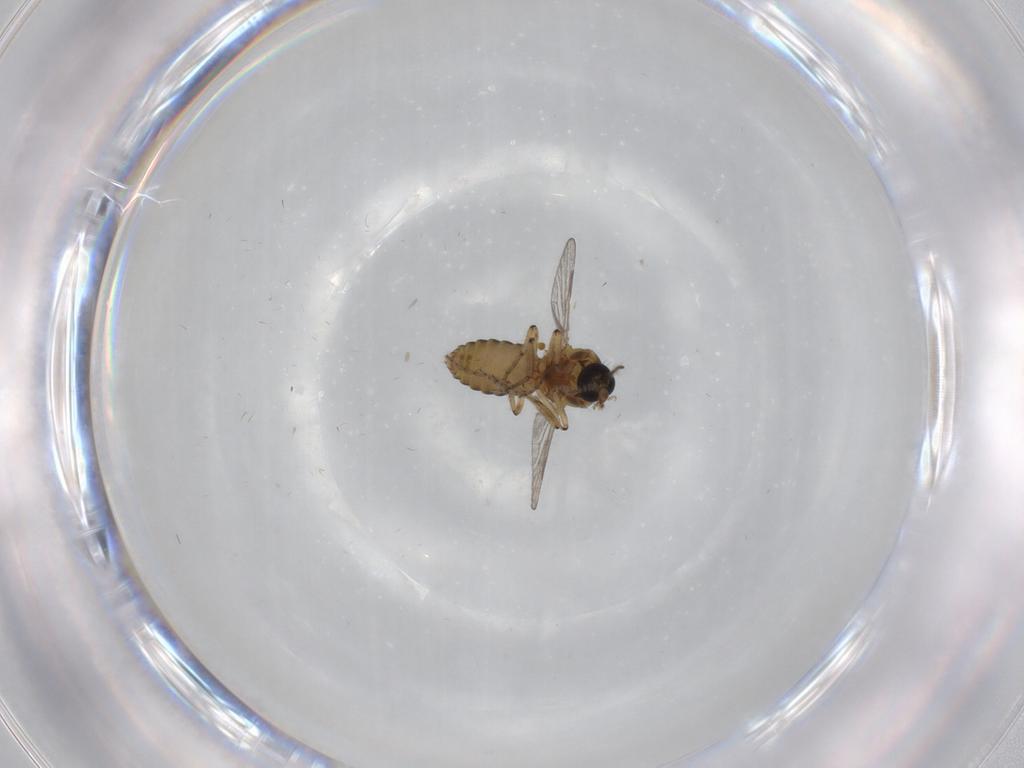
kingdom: Animalia
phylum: Arthropoda
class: Insecta
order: Diptera
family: Ceratopogonidae
